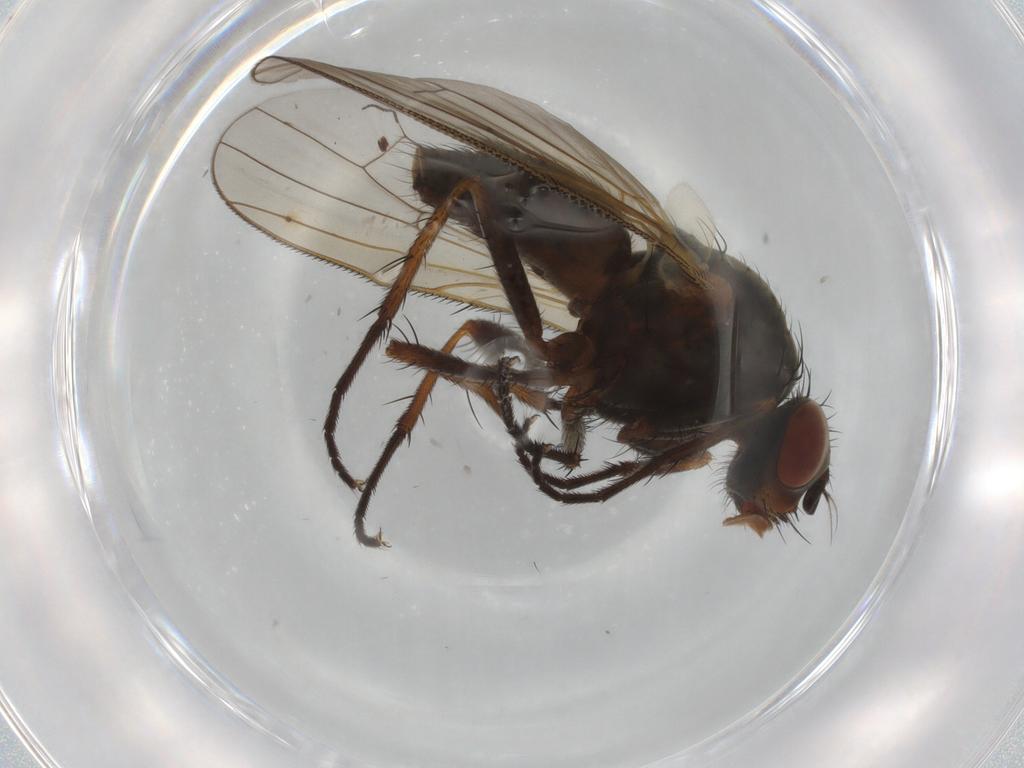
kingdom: Animalia
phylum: Arthropoda
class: Insecta
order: Diptera
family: Anthomyiidae
